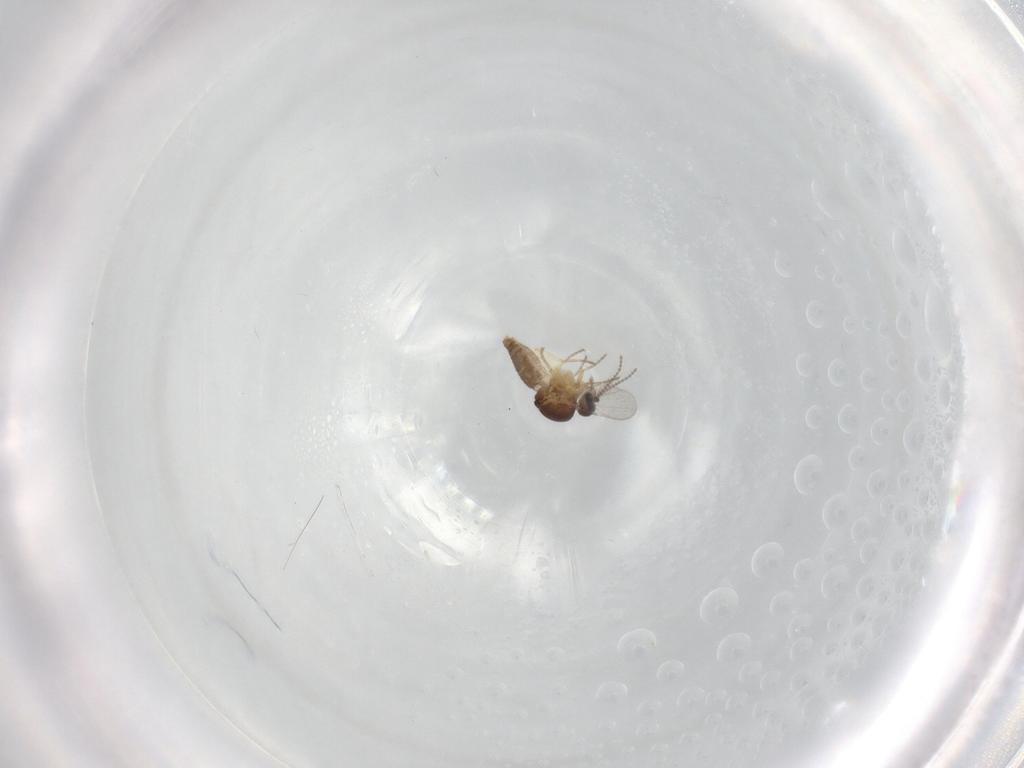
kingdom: Animalia
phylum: Arthropoda
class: Insecta
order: Diptera
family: Ceratopogonidae
